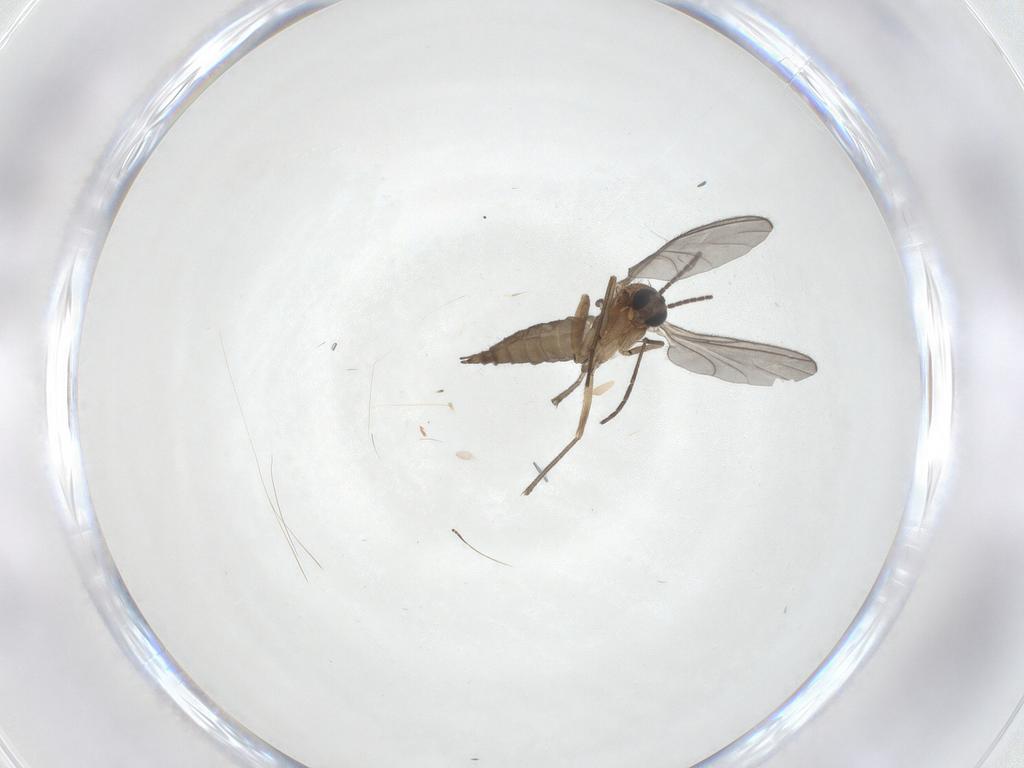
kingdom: Animalia
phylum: Arthropoda
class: Insecta
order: Diptera
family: Sciaridae
